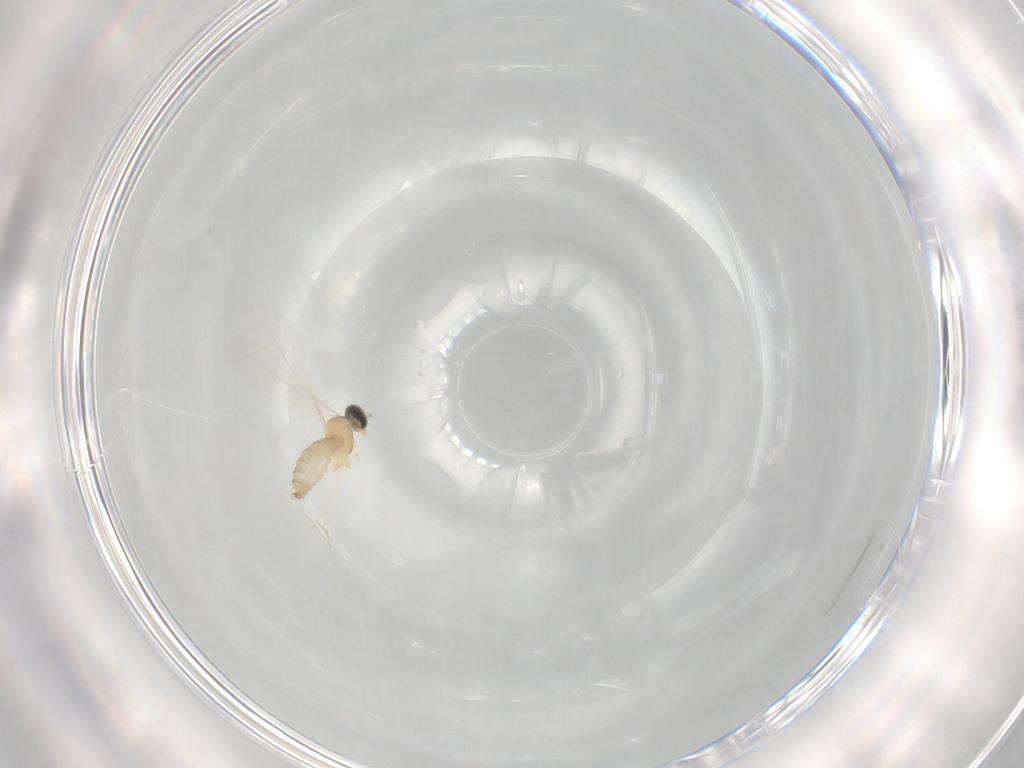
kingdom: Animalia
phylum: Arthropoda
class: Insecta
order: Diptera
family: Cecidomyiidae
